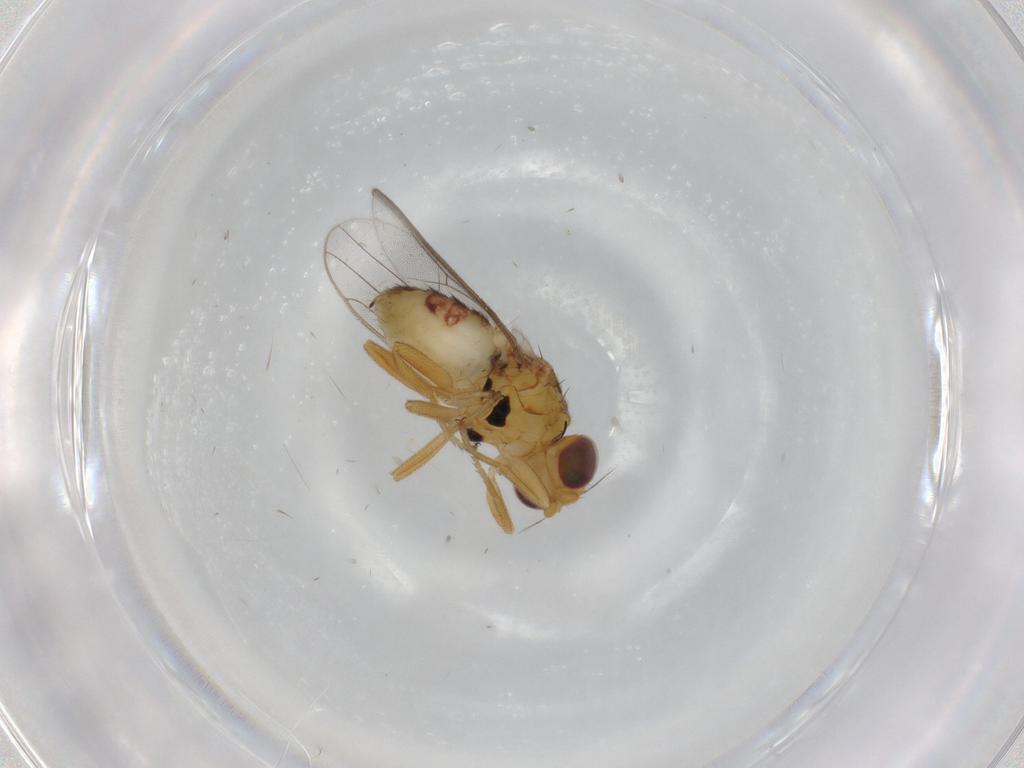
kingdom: Animalia
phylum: Arthropoda
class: Insecta
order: Diptera
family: Chloropidae
